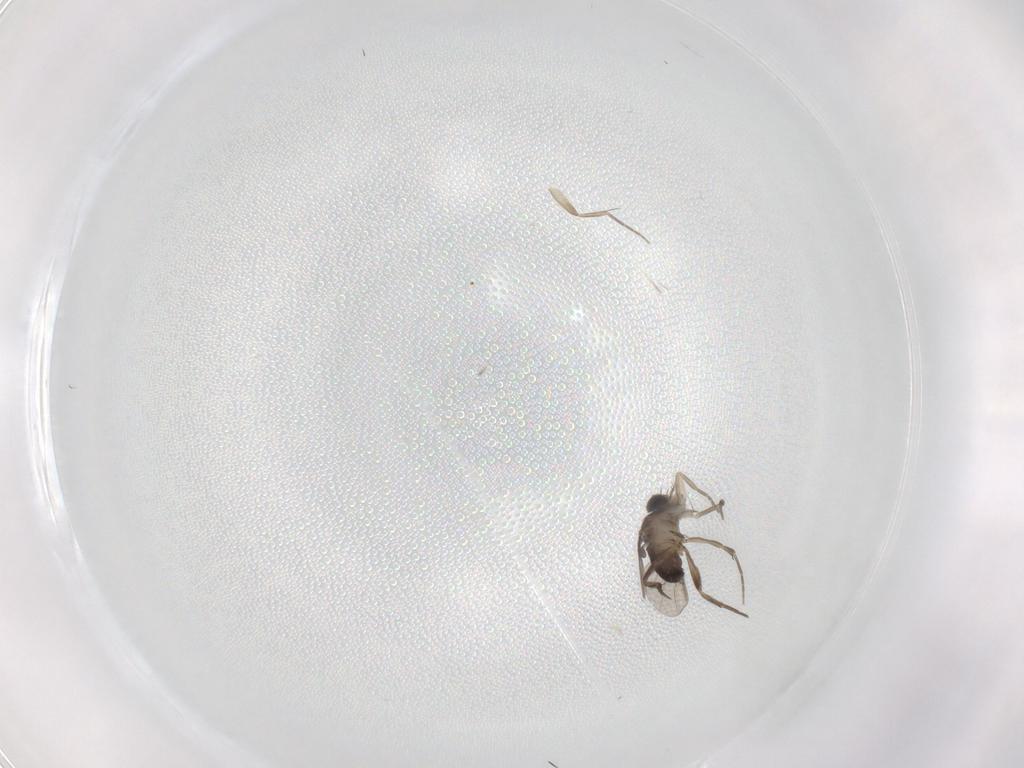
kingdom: Animalia
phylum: Arthropoda
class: Insecta
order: Diptera
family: Phoridae
